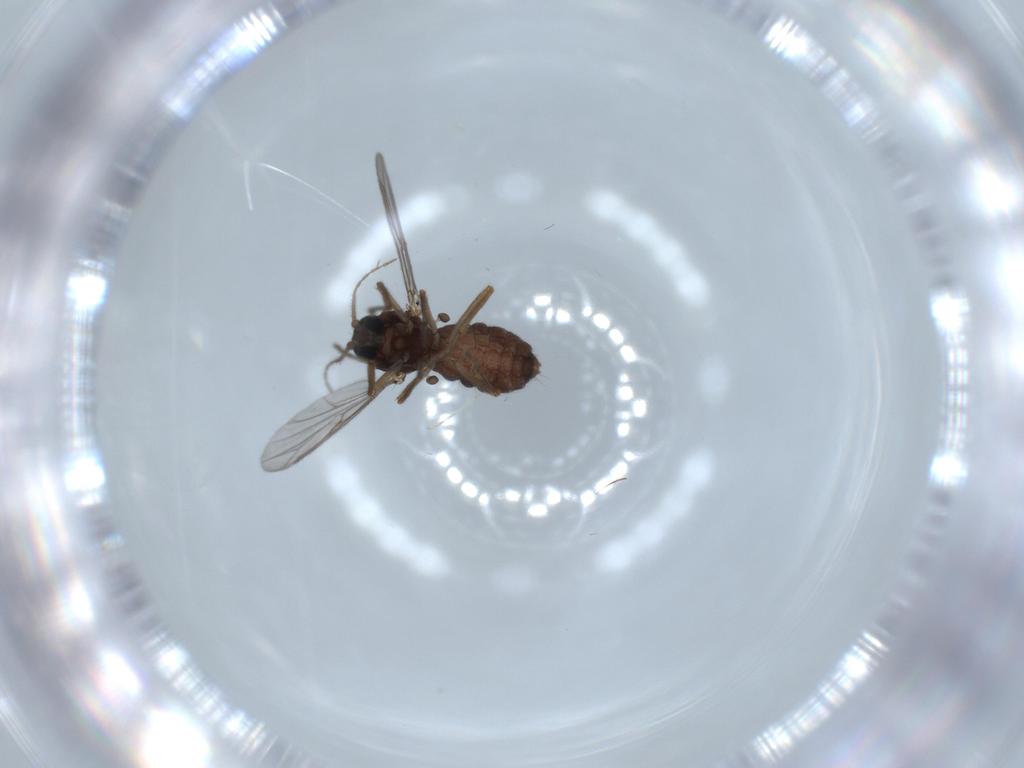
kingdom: Animalia
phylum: Arthropoda
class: Insecta
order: Diptera
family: Ceratopogonidae
